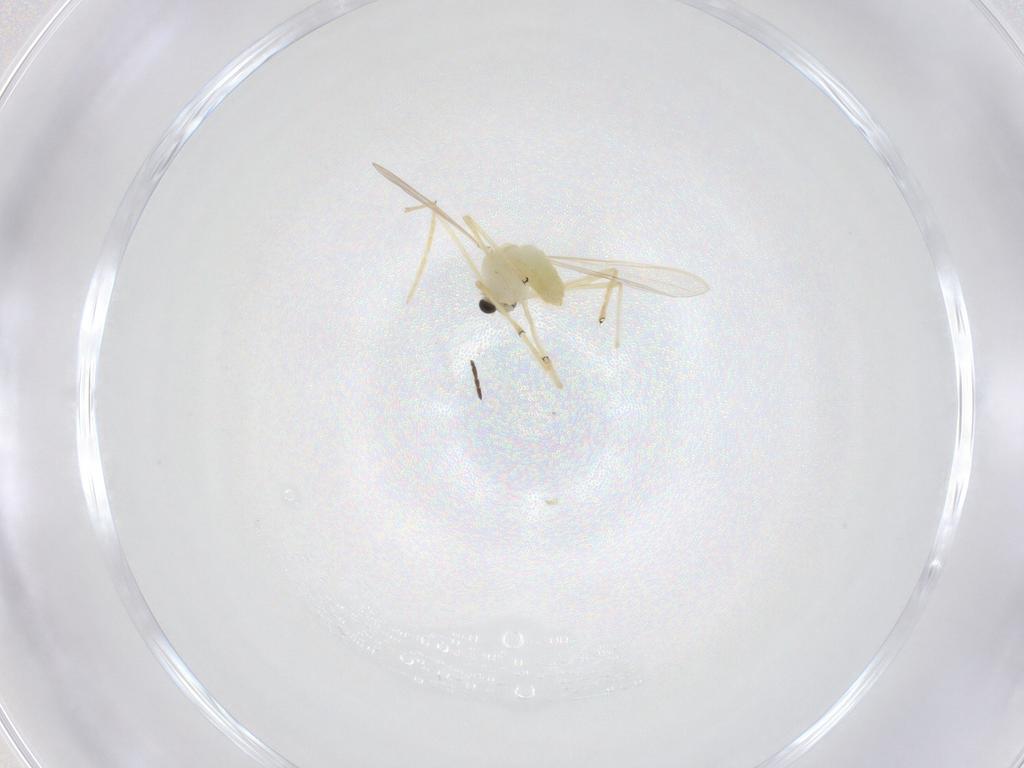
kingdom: Animalia
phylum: Arthropoda
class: Insecta
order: Diptera
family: Chironomidae
